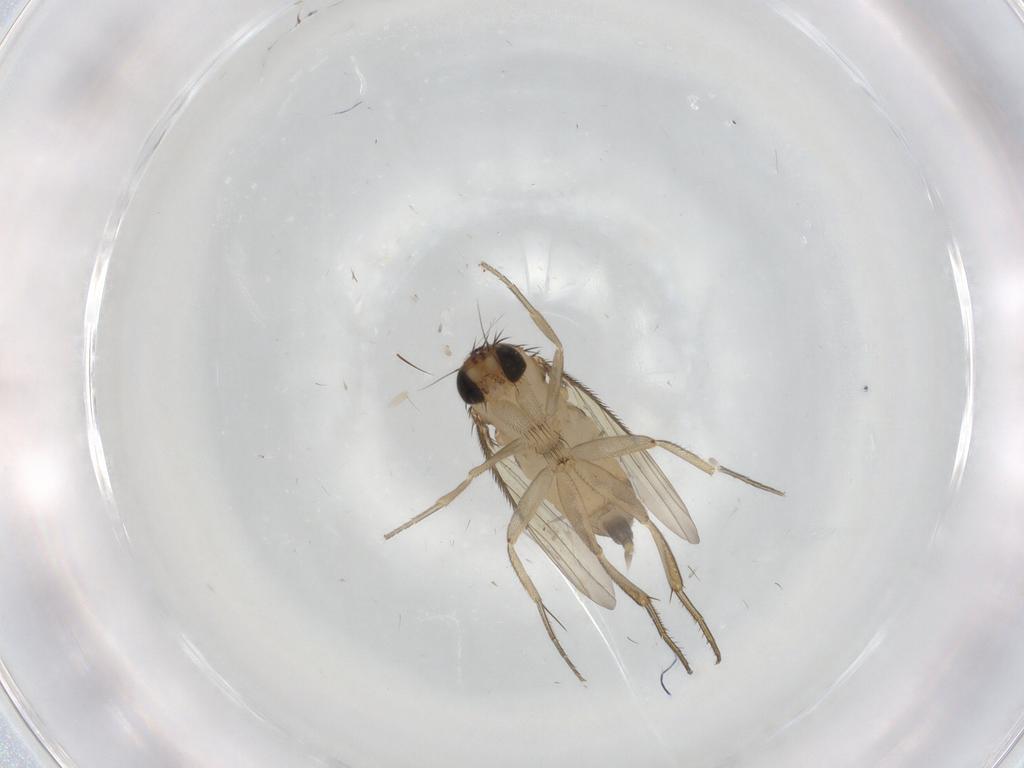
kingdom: Animalia
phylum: Arthropoda
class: Insecta
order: Diptera
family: Phoridae
